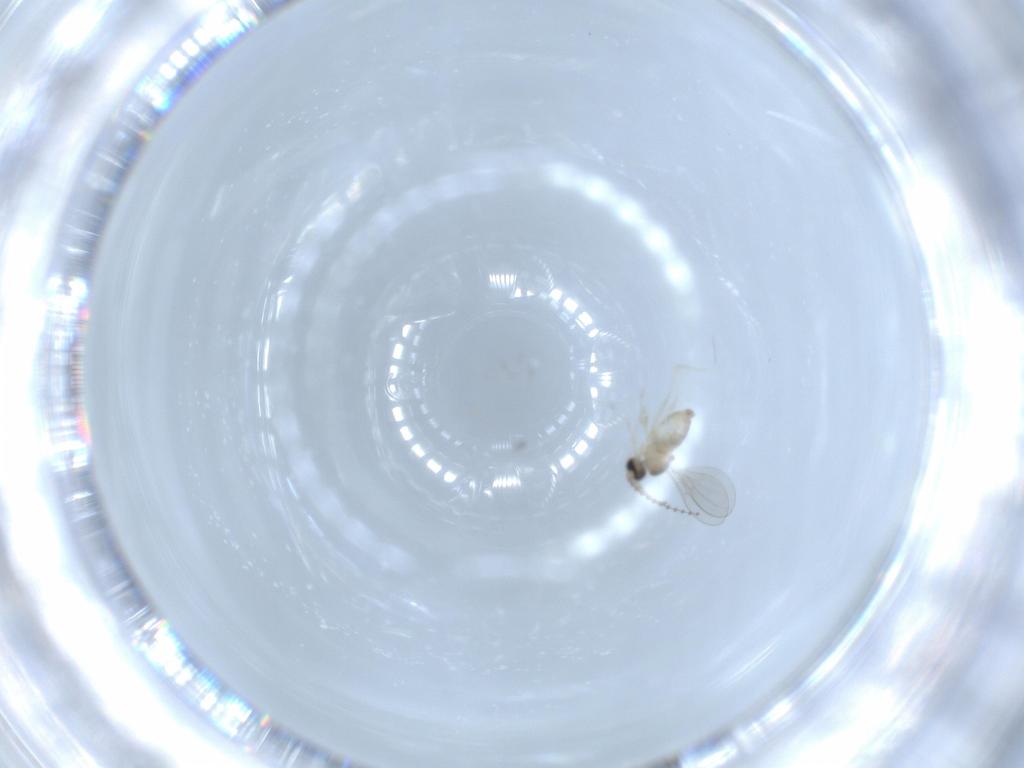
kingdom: Animalia
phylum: Arthropoda
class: Insecta
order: Diptera
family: Cecidomyiidae
